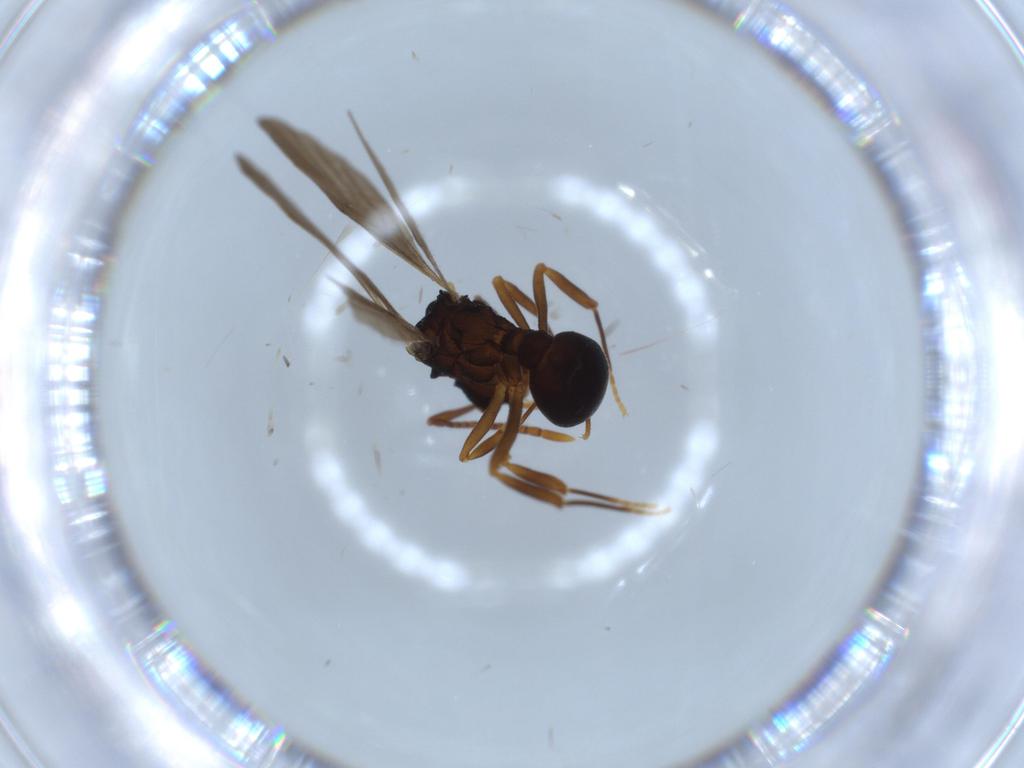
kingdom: Animalia
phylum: Arthropoda
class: Insecta
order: Hymenoptera
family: Formicidae
